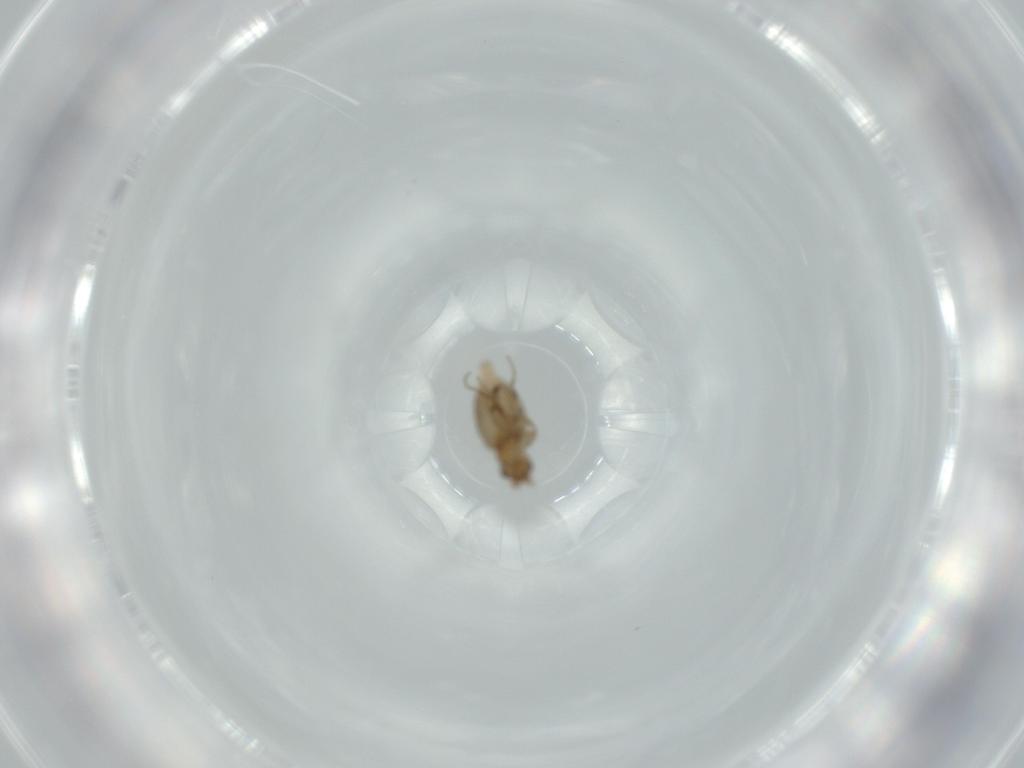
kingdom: Animalia
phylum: Arthropoda
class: Insecta
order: Diptera
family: Phoridae
